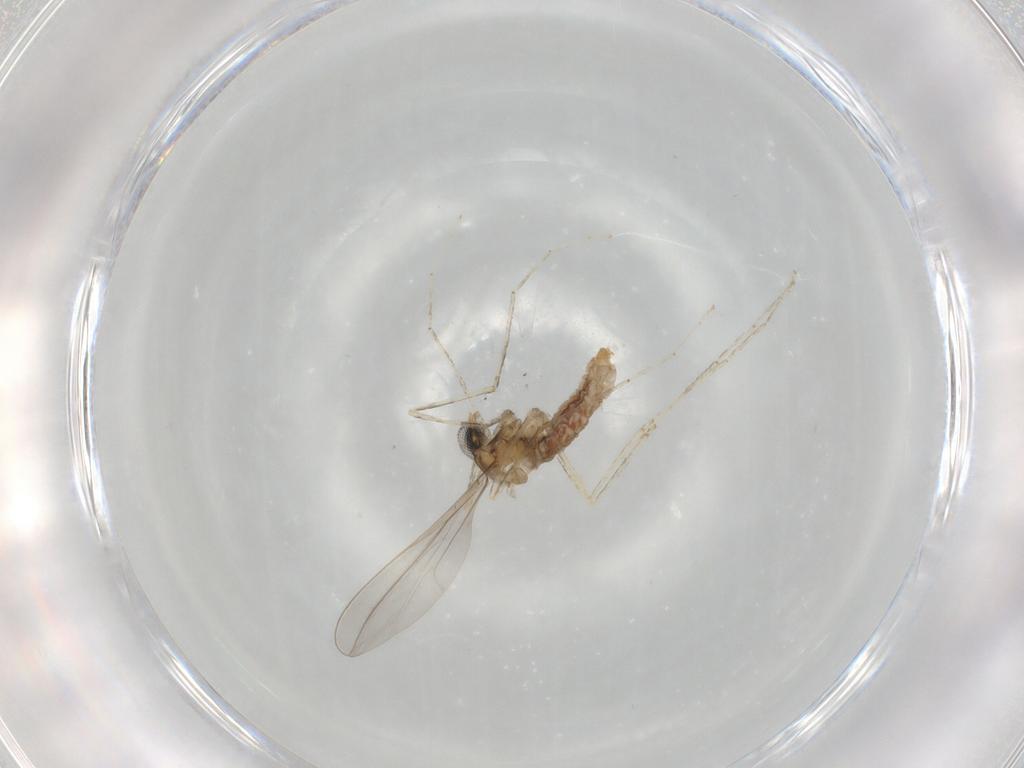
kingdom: Animalia
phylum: Arthropoda
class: Insecta
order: Diptera
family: Cecidomyiidae
